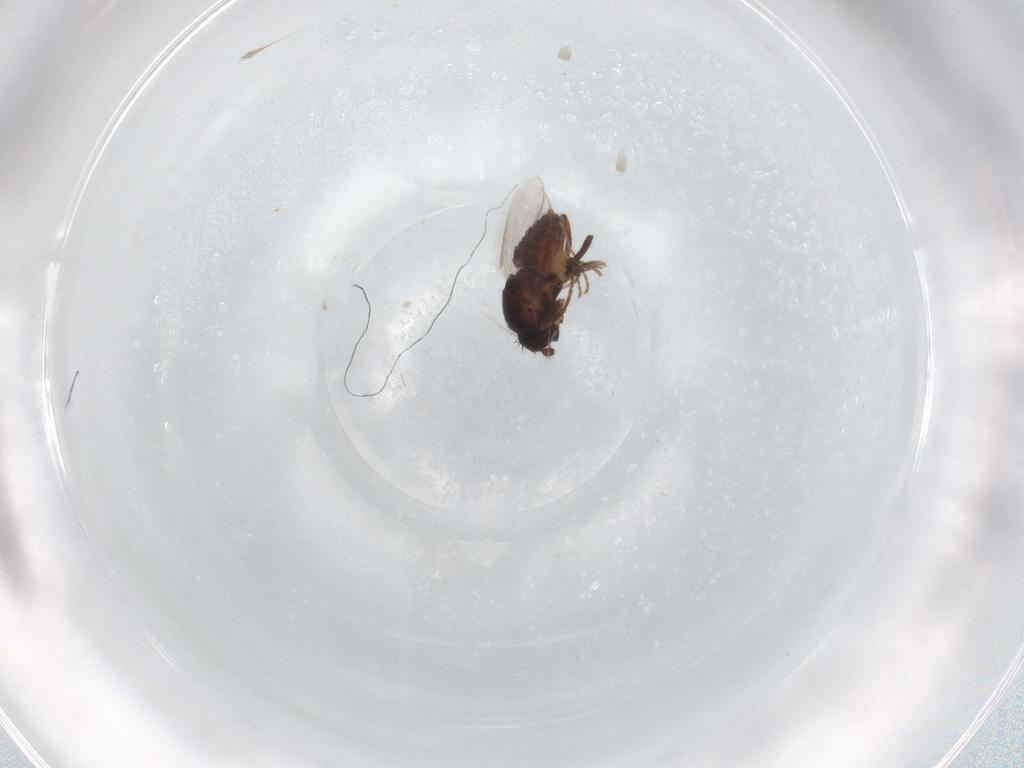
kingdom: Animalia
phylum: Arthropoda
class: Insecta
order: Diptera
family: Sphaeroceridae
